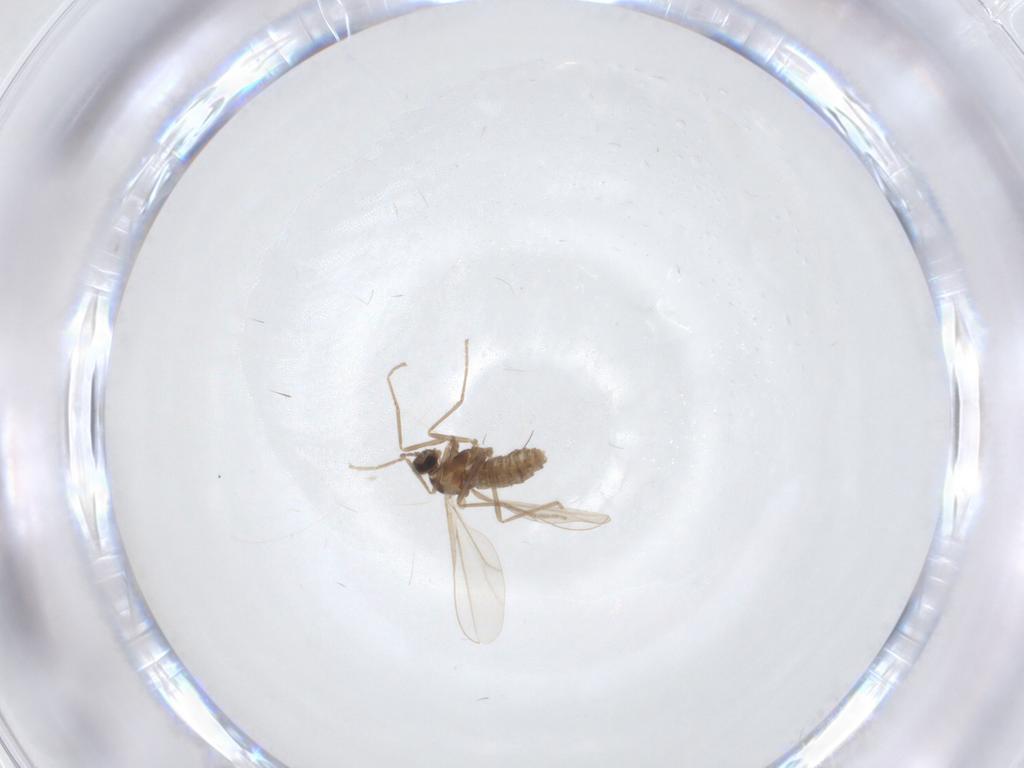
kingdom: Animalia
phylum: Arthropoda
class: Insecta
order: Diptera
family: Cecidomyiidae
